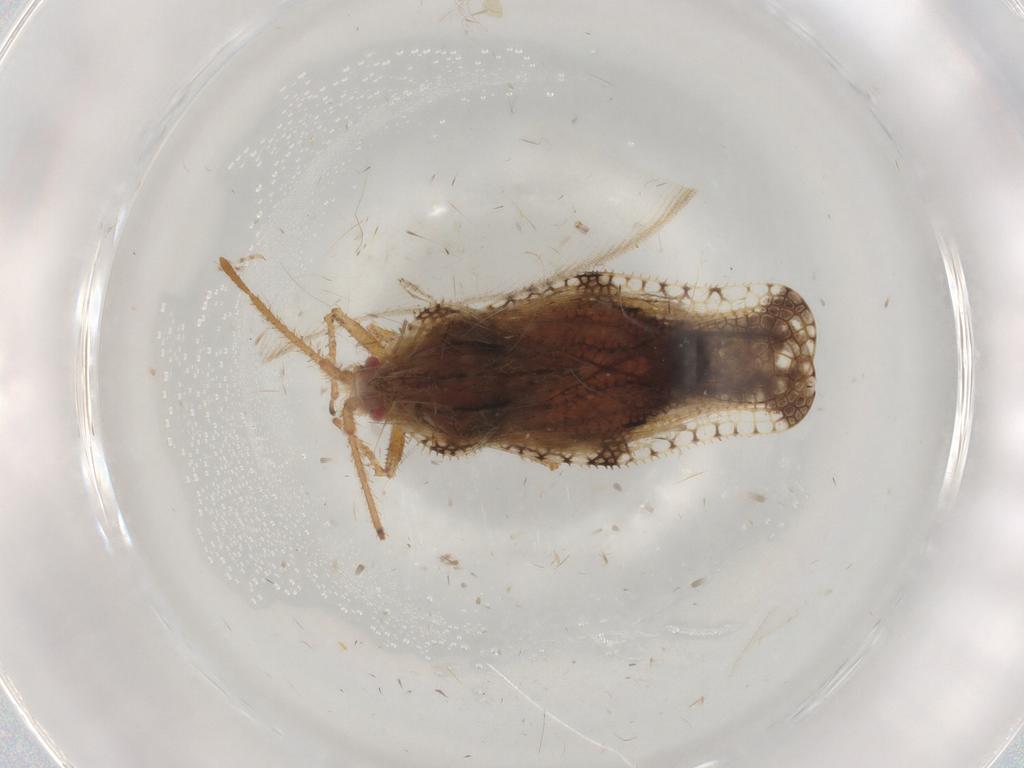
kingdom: Animalia
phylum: Arthropoda
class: Insecta
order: Hemiptera
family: Tingidae
